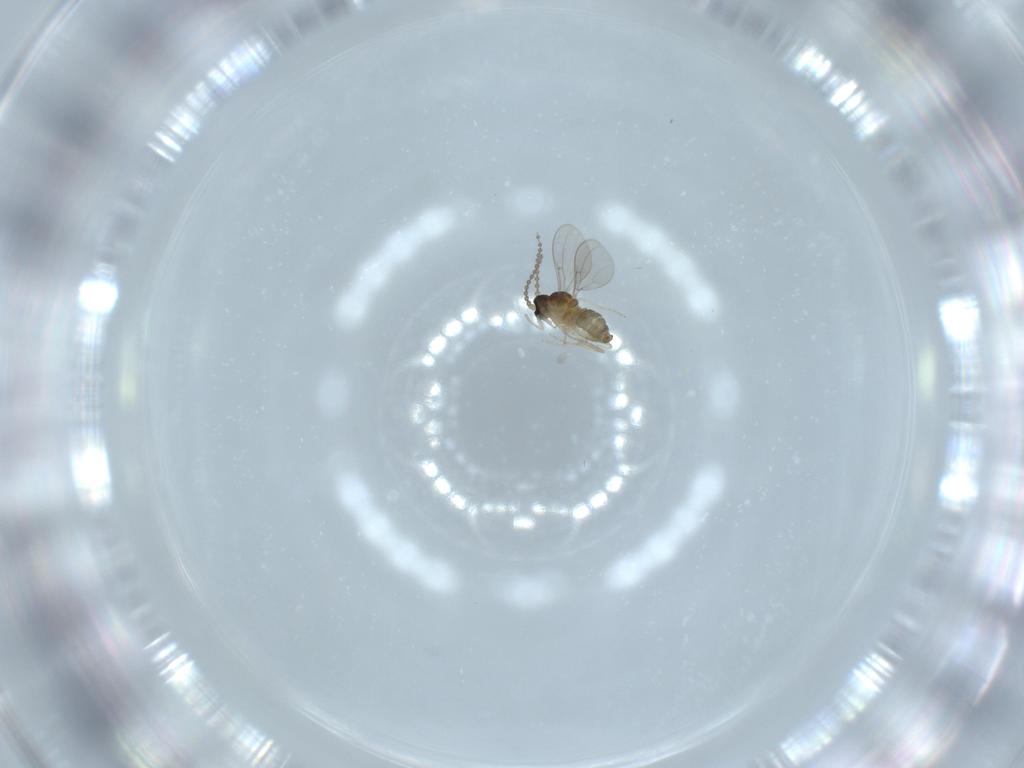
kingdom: Animalia
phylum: Arthropoda
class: Insecta
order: Diptera
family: Cecidomyiidae
